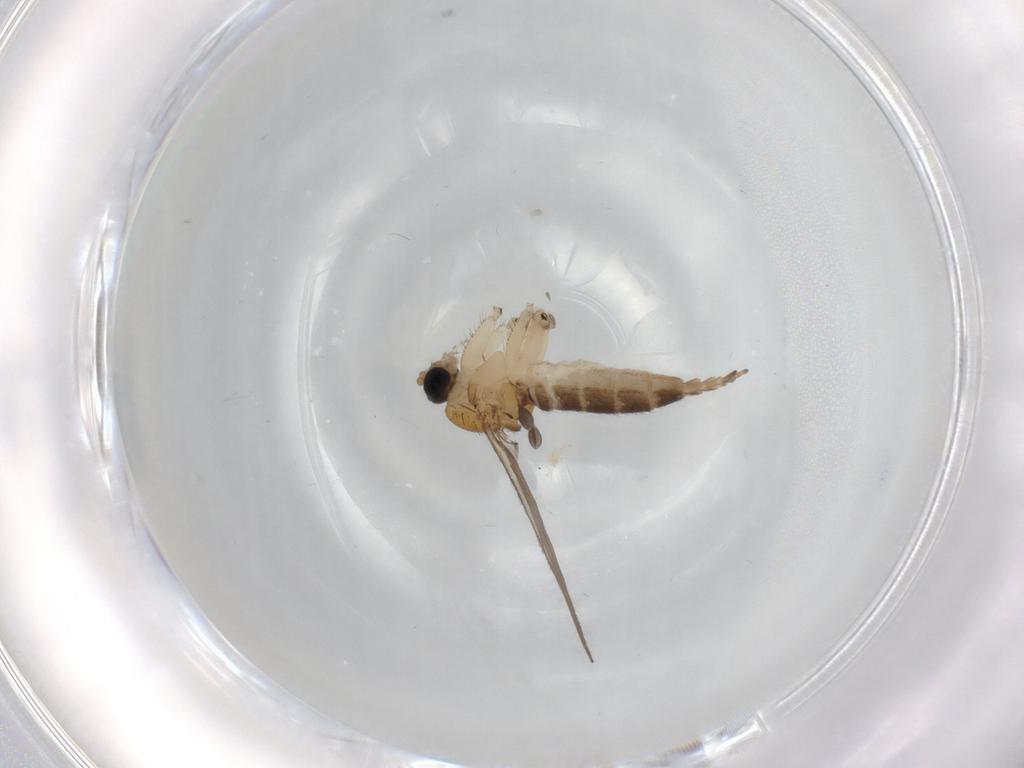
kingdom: Animalia
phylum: Arthropoda
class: Insecta
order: Diptera
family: Sciaridae
